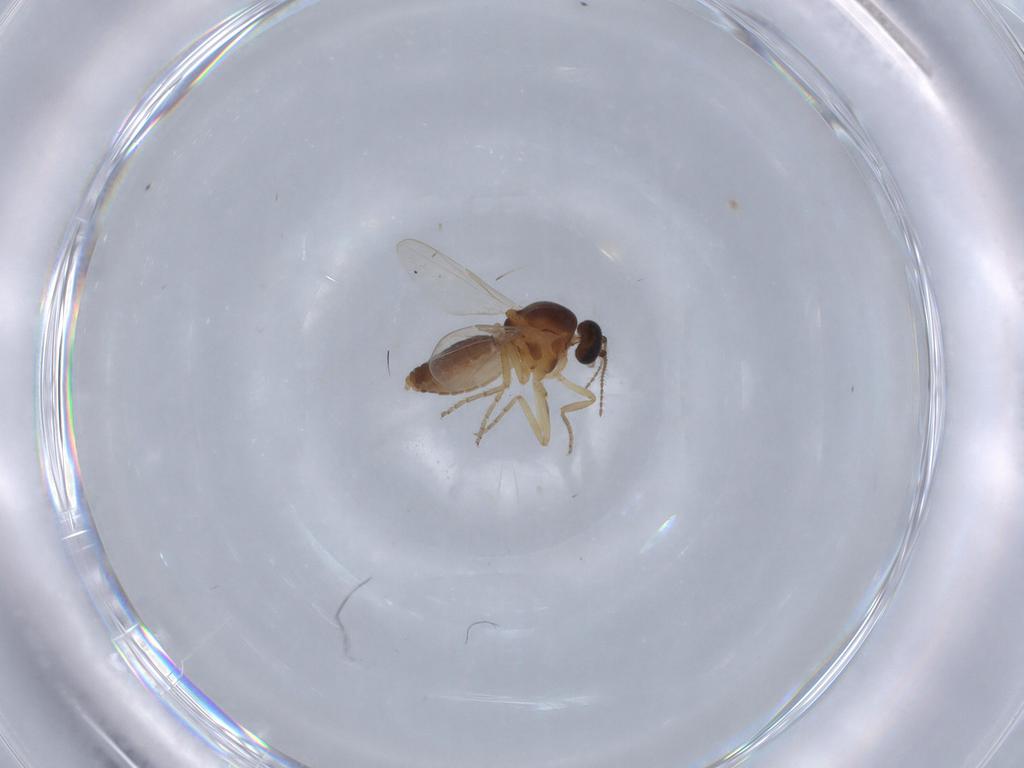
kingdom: Animalia
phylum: Arthropoda
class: Insecta
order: Diptera
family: Ceratopogonidae
